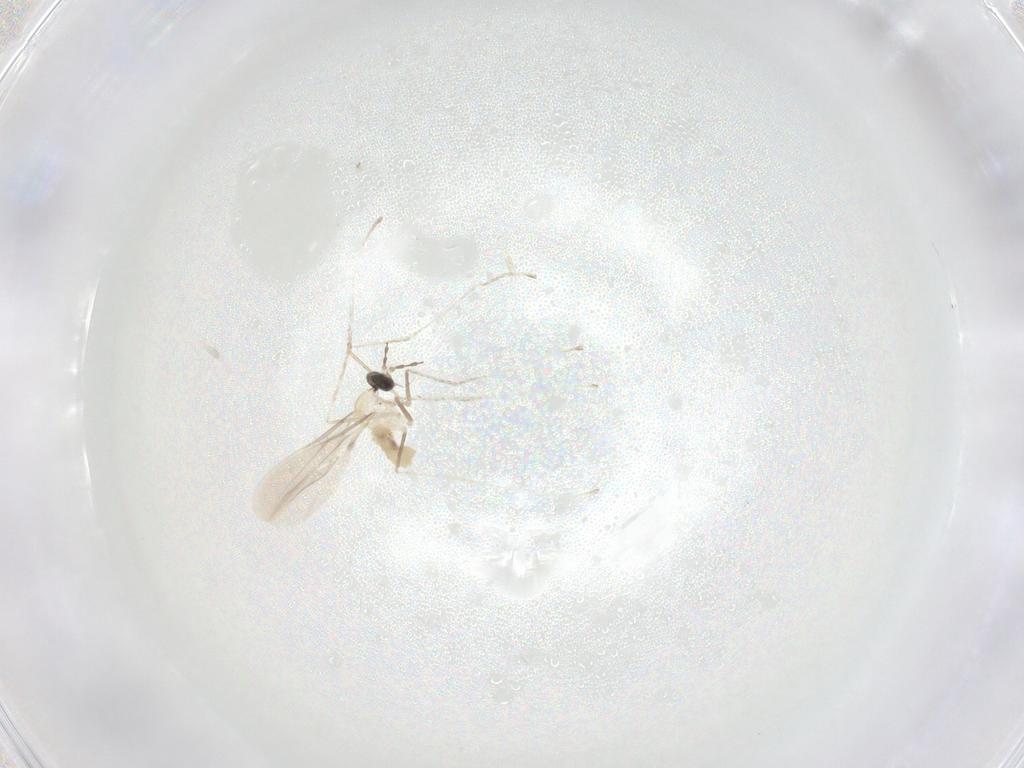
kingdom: Animalia
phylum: Arthropoda
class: Insecta
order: Diptera
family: Cecidomyiidae
